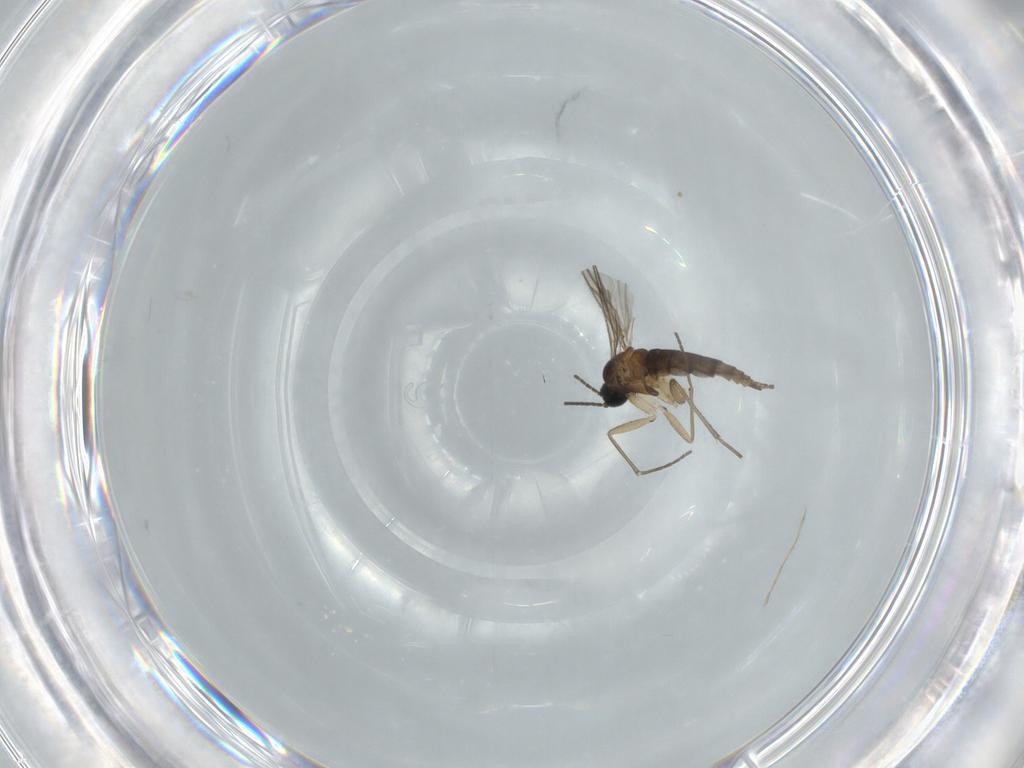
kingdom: Animalia
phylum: Arthropoda
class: Insecta
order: Diptera
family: Sciaridae
